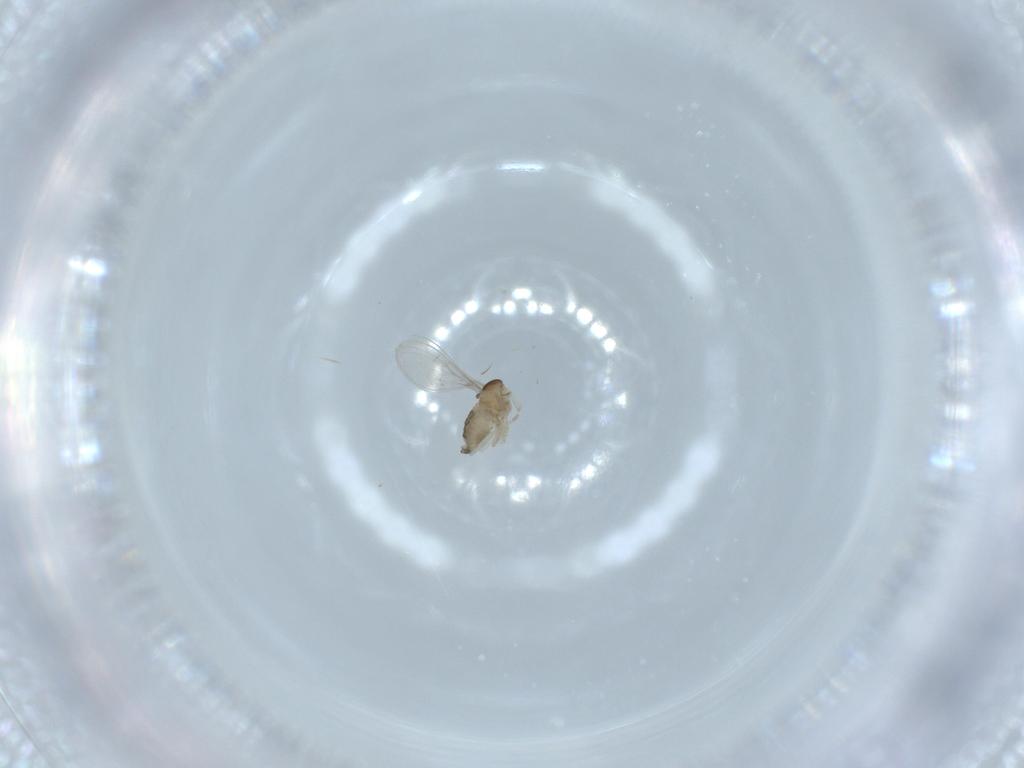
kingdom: Animalia
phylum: Arthropoda
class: Insecta
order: Diptera
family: Cecidomyiidae
